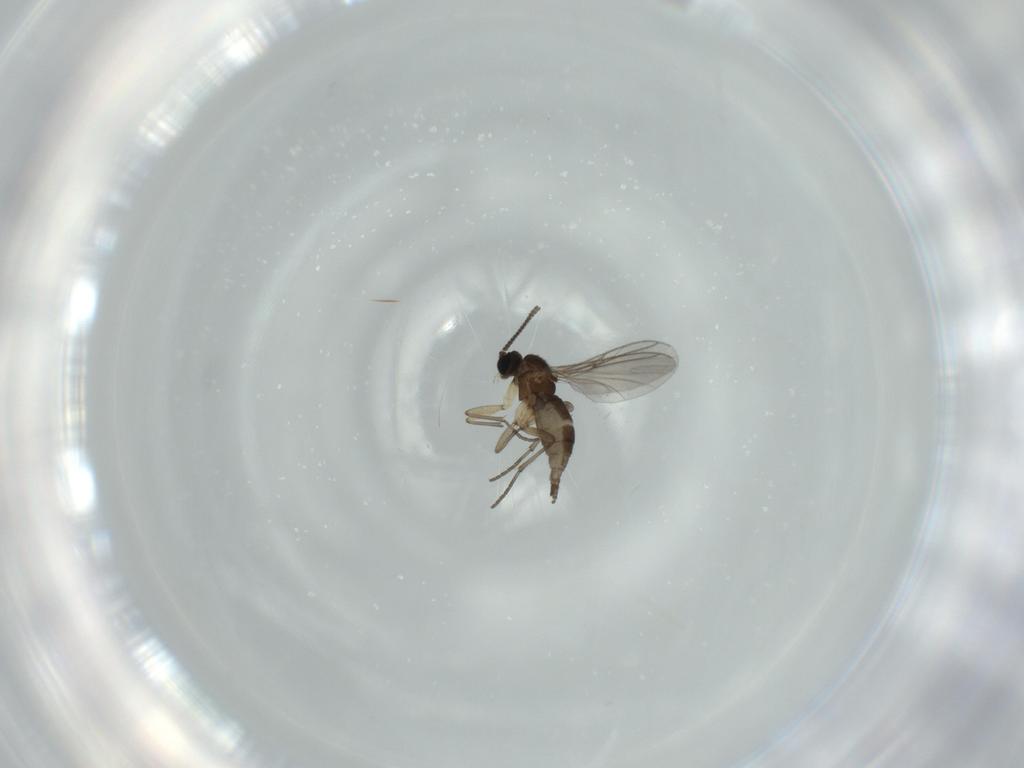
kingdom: Animalia
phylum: Arthropoda
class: Insecta
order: Diptera
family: Sciaridae
